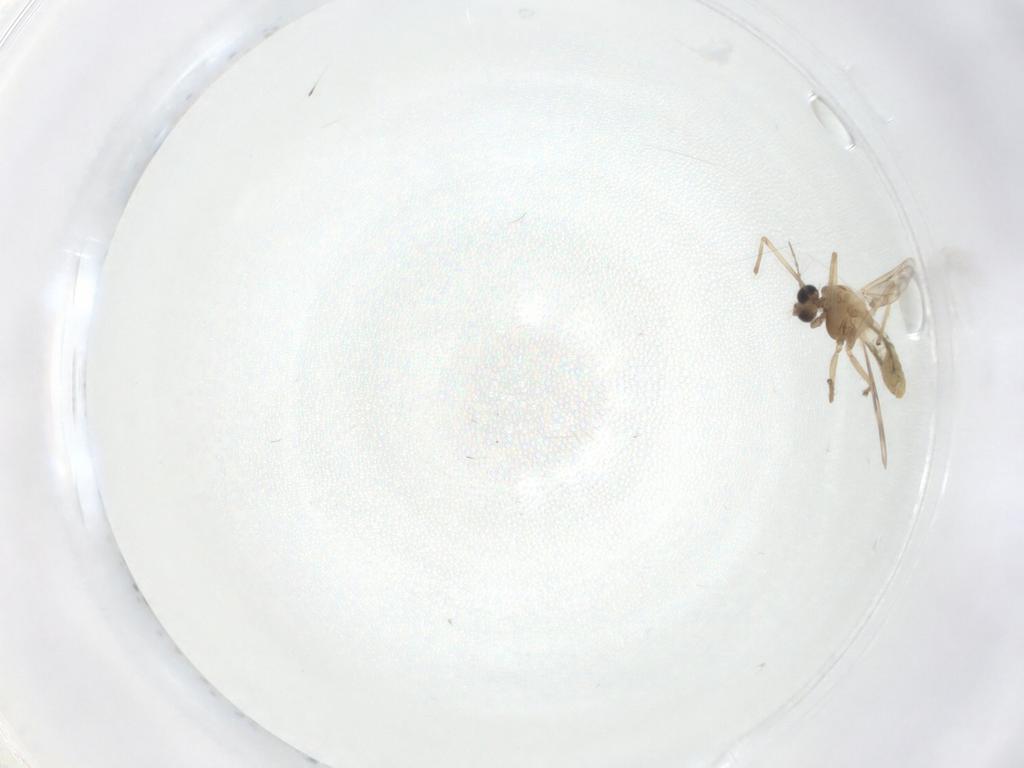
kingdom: Animalia
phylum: Arthropoda
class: Insecta
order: Diptera
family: Chironomidae
